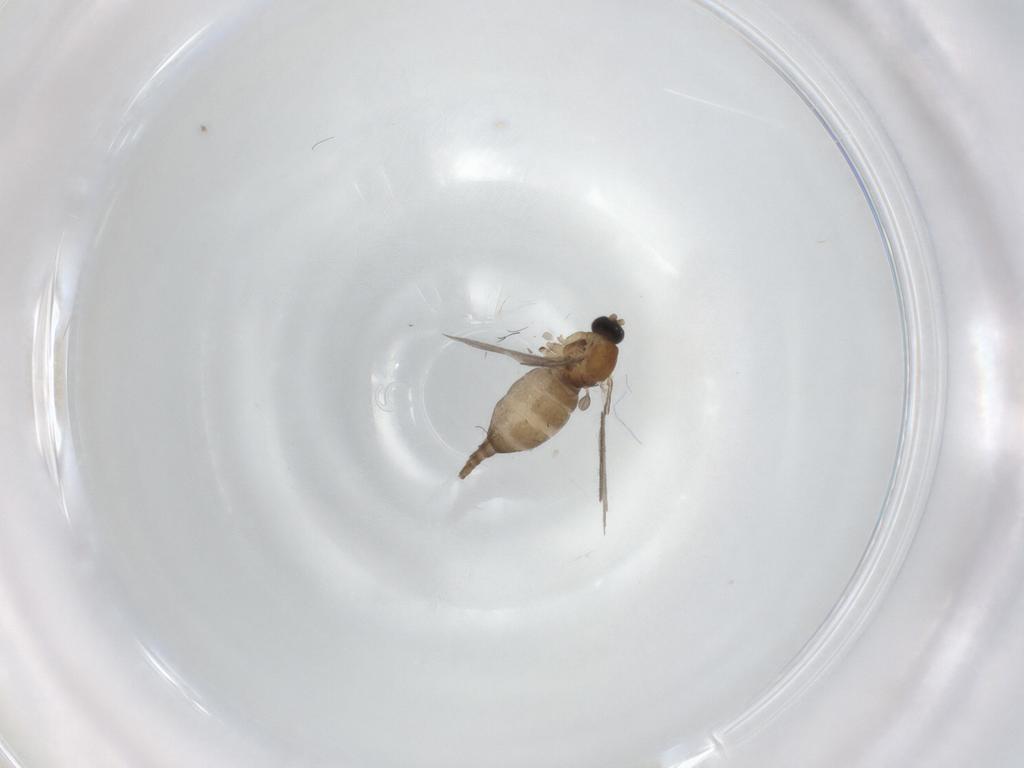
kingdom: Animalia
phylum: Arthropoda
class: Insecta
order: Diptera
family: Sciaridae
